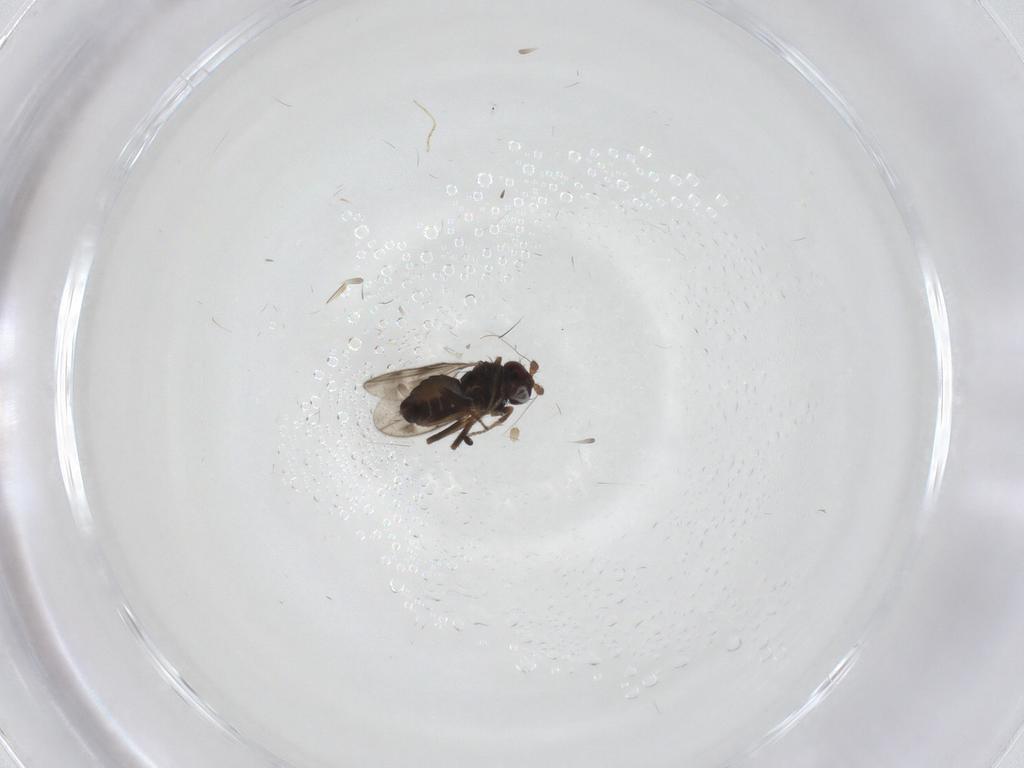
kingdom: Animalia
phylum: Arthropoda
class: Insecta
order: Diptera
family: Sphaeroceridae
